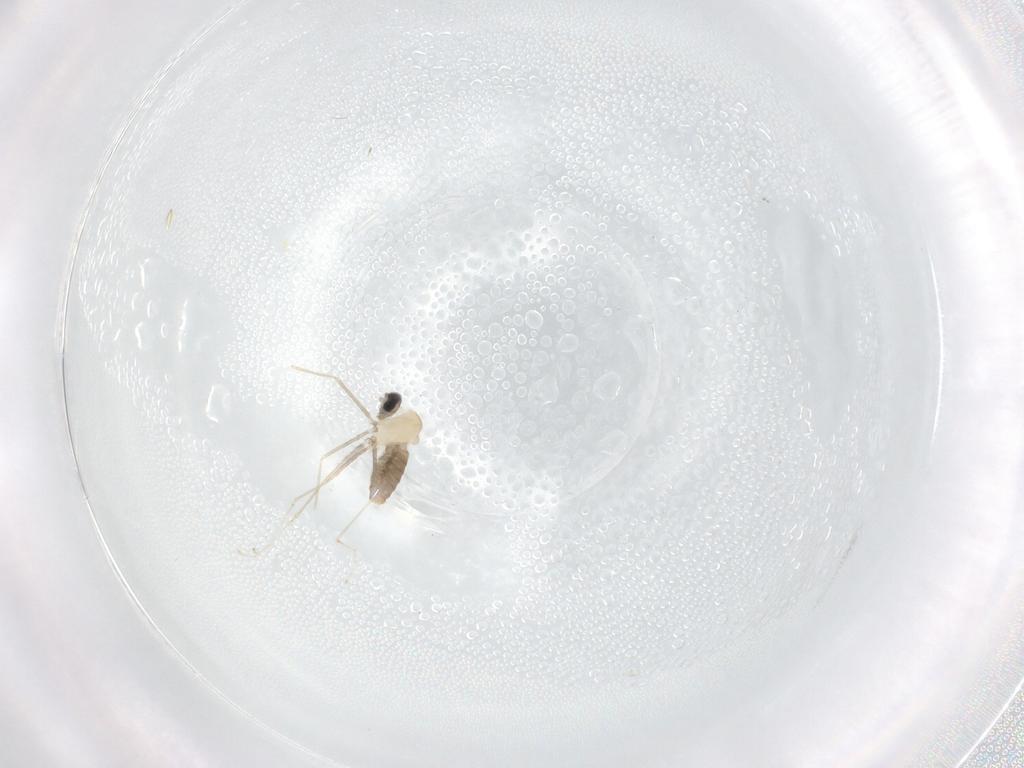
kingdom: Animalia
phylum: Arthropoda
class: Insecta
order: Diptera
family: Cecidomyiidae
